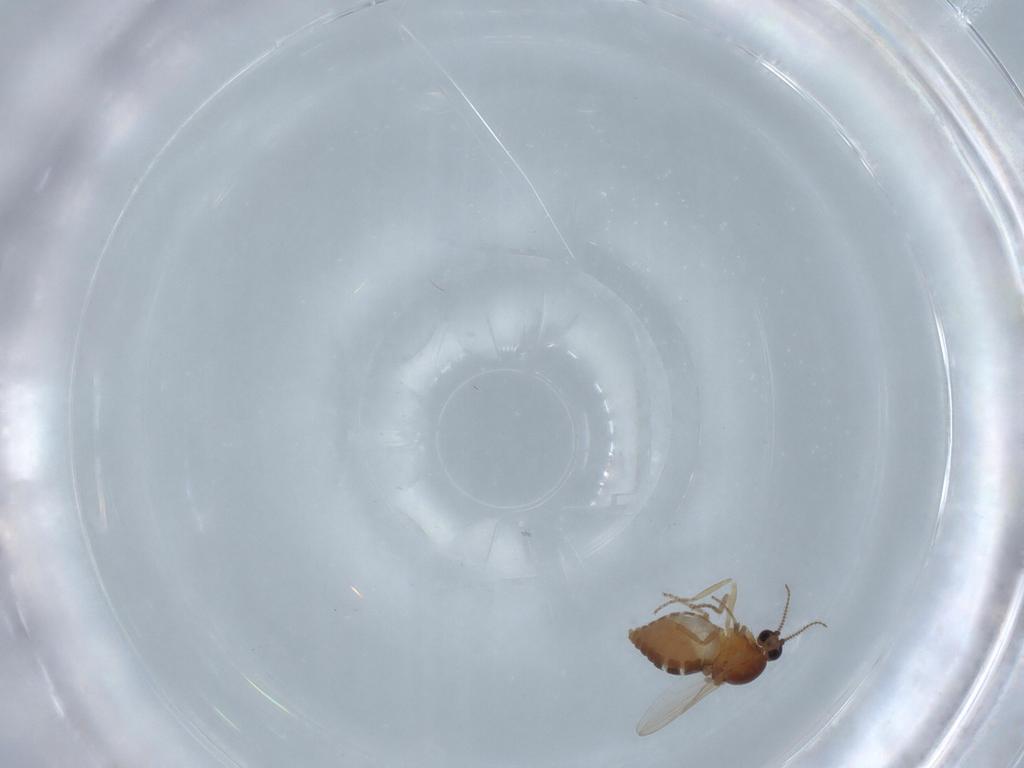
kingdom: Animalia
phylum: Arthropoda
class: Insecta
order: Diptera
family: Ceratopogonidae
